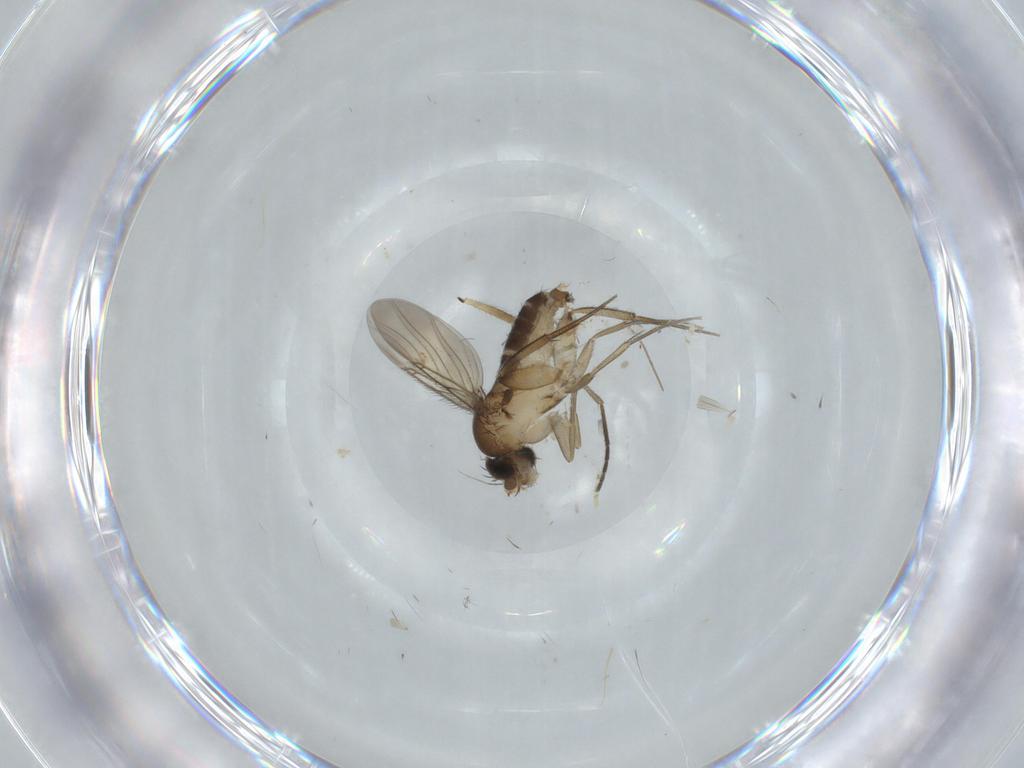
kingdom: Animalia
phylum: Arthropoda
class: Insecta
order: Diptera
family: Phoridae
